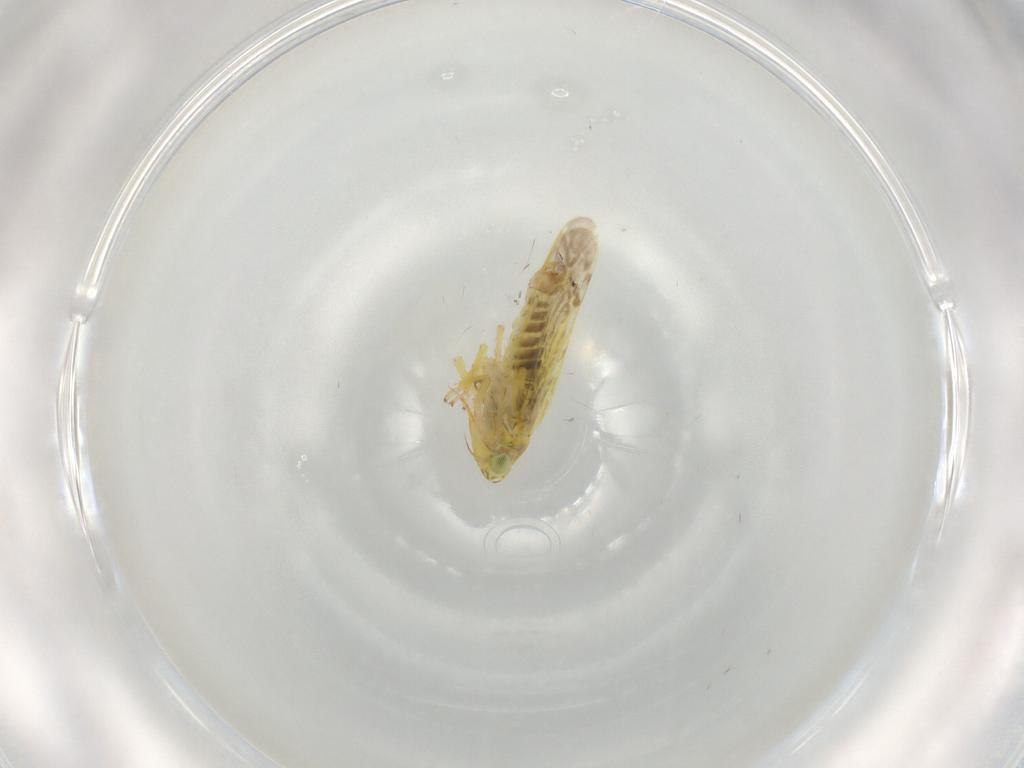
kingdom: Animalia
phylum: Arthropoda
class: Insecta
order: Hemiptera
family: Cicadellidae
